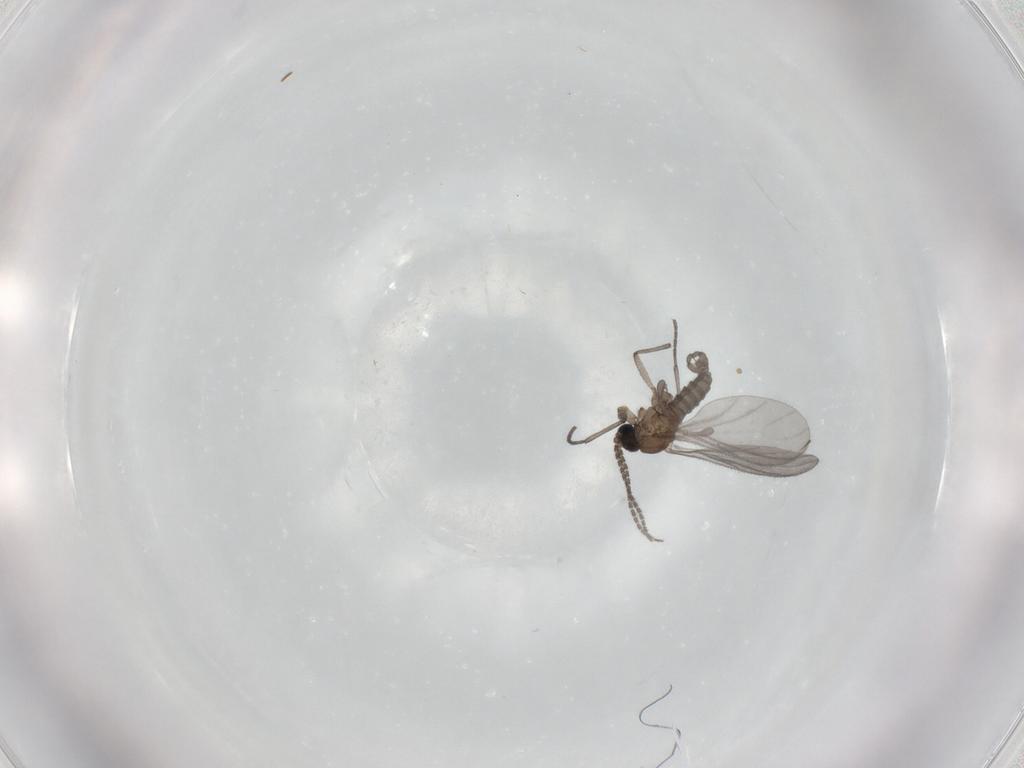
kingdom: Animalia
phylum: Arthropoda
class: Insecta
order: Diptera
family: Sciaridae
